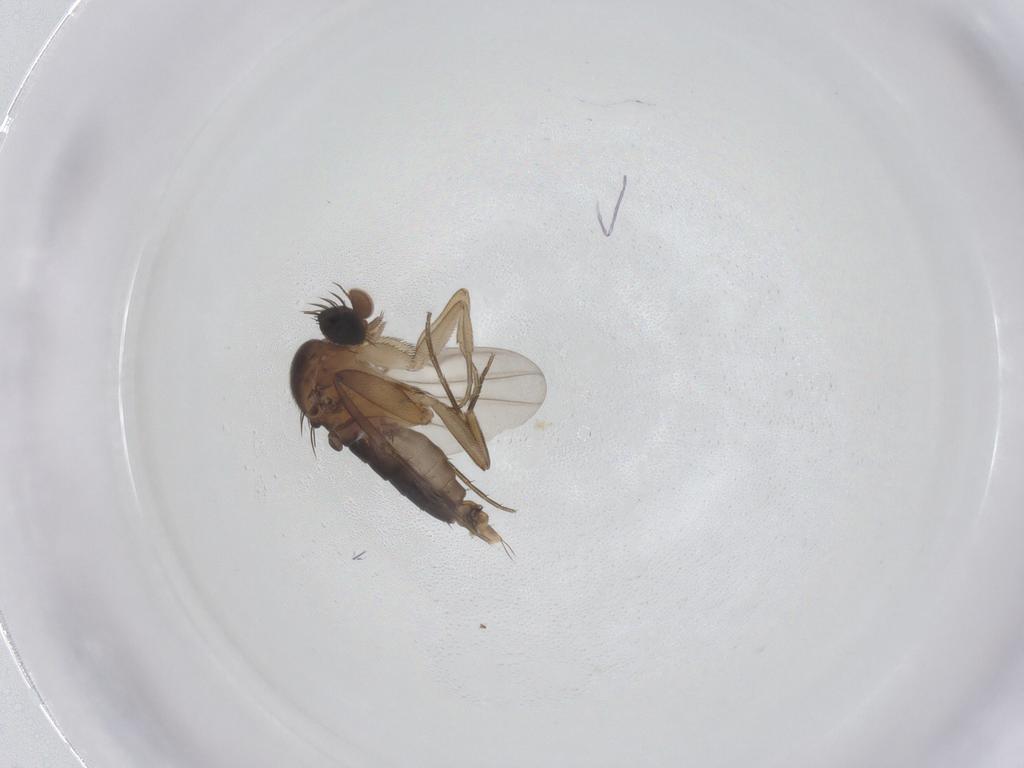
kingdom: Animalia
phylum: Arthropoda
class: Insecta
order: Diptera
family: Phoridae
